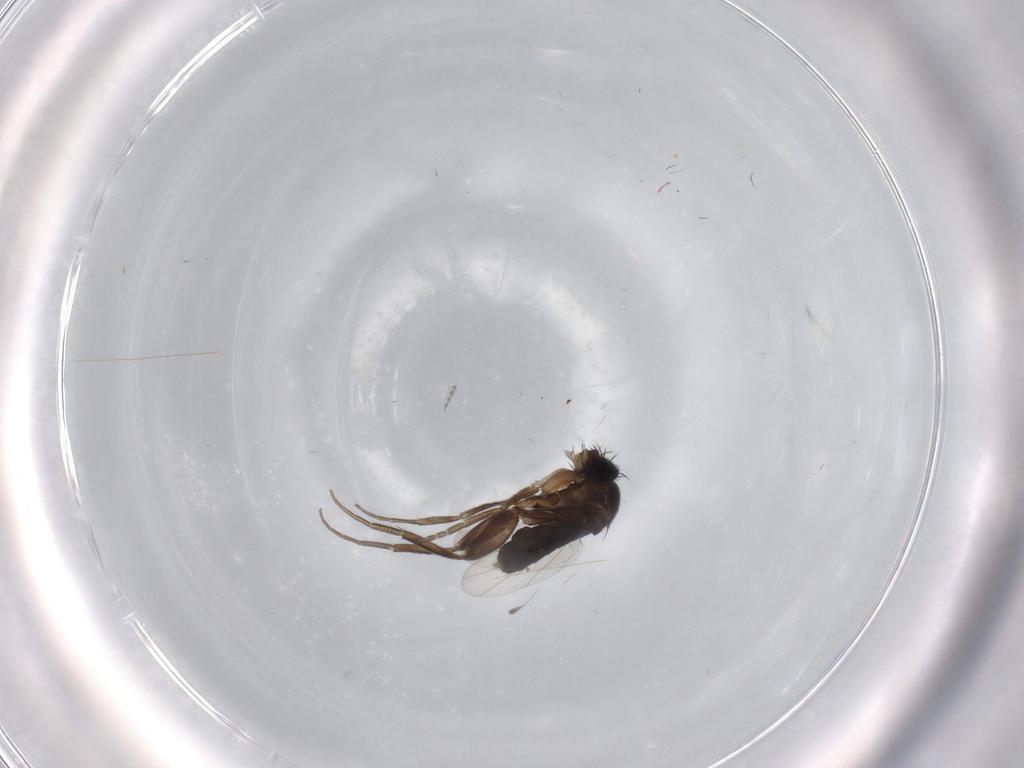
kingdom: Animalia
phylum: Arthropoda
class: Insecta
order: Diptera
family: Phoridae
